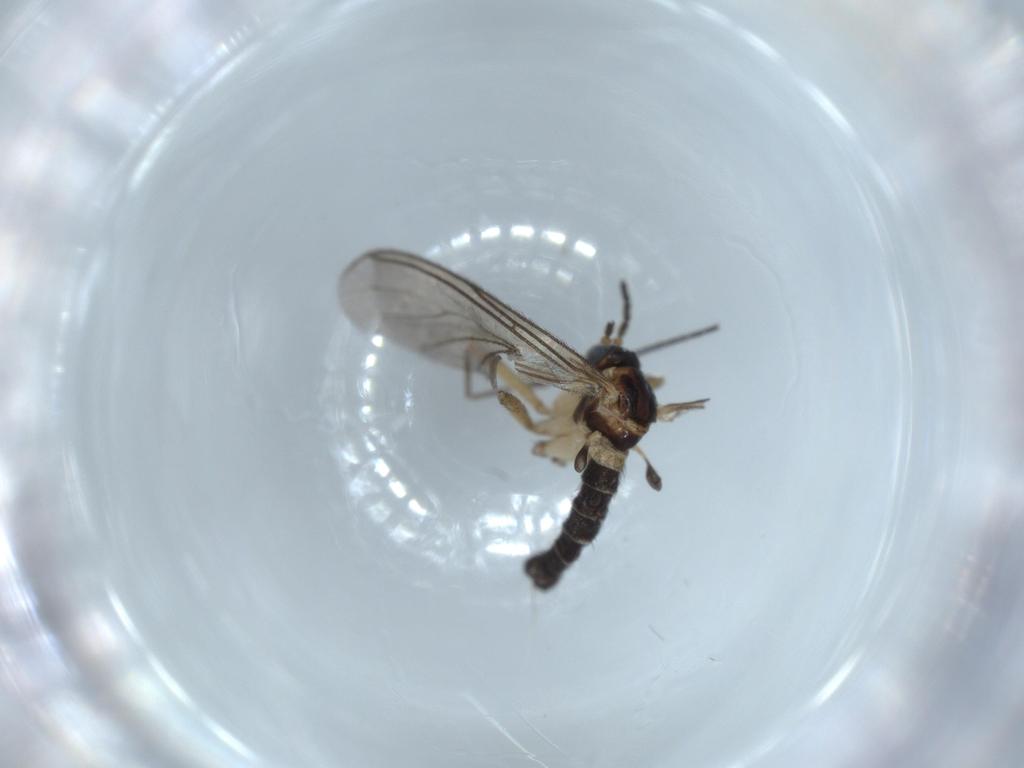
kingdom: Animalia
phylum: Arthropoda
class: Insecta
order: Diptera
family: Sciaridae
